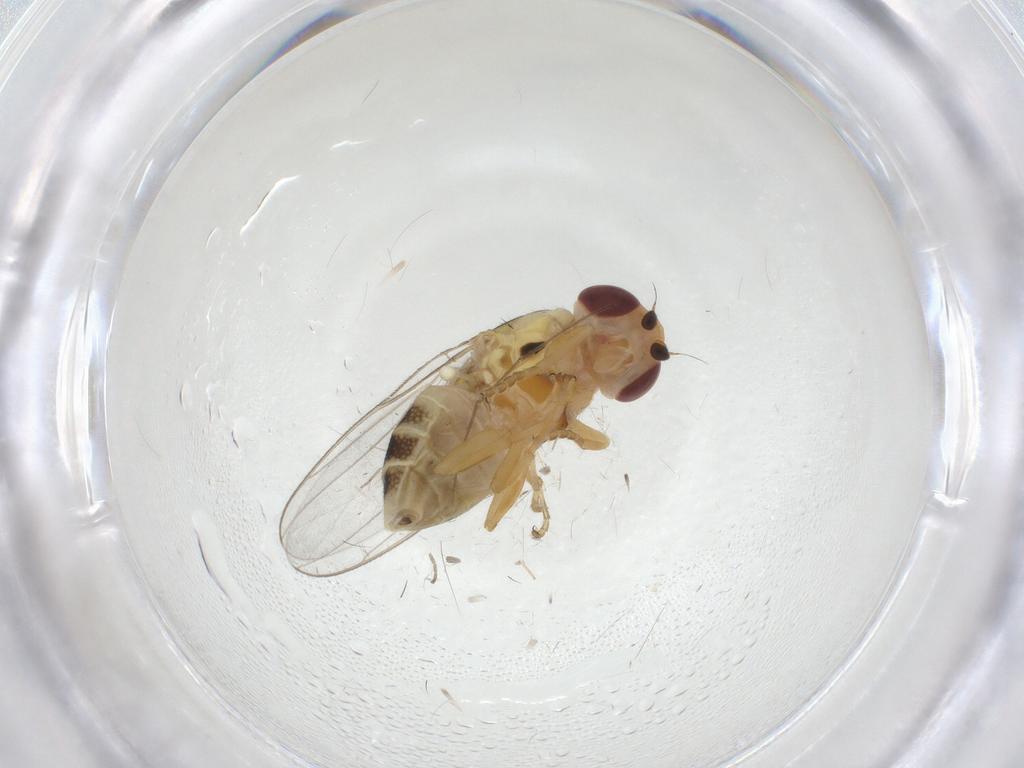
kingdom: Animalia
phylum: Arthropoda
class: Insecta
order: Diptera
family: Chloropidae
